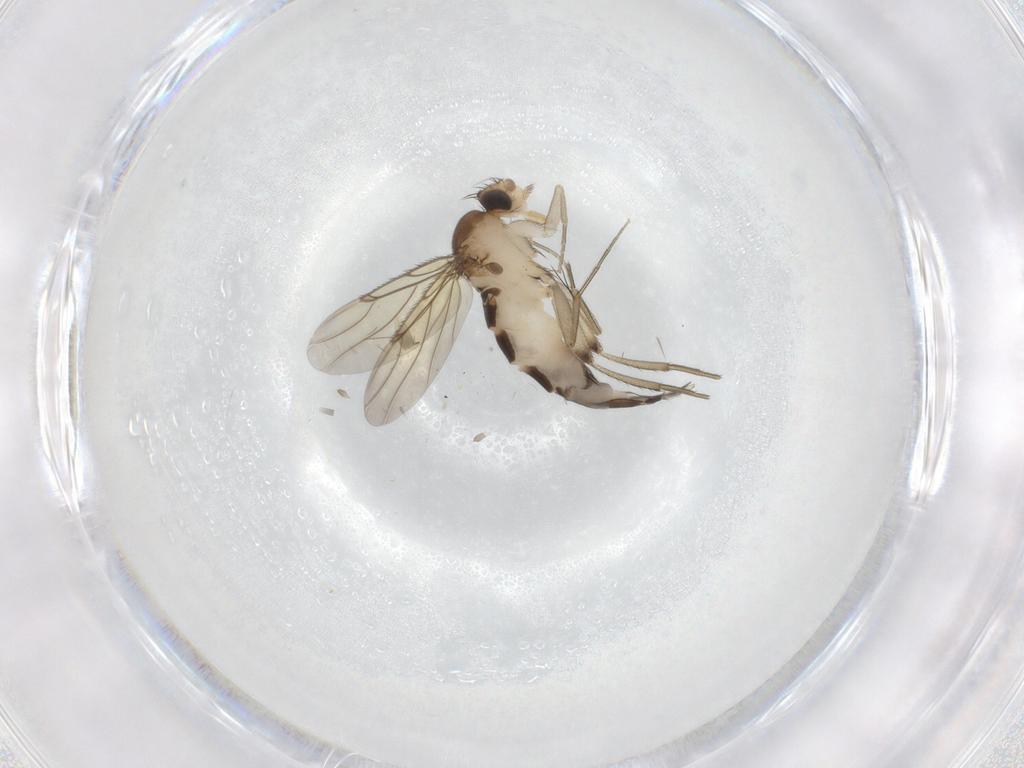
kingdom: Animalia
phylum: Arthropoda
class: Insecta
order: Diptera
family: Phoridae
